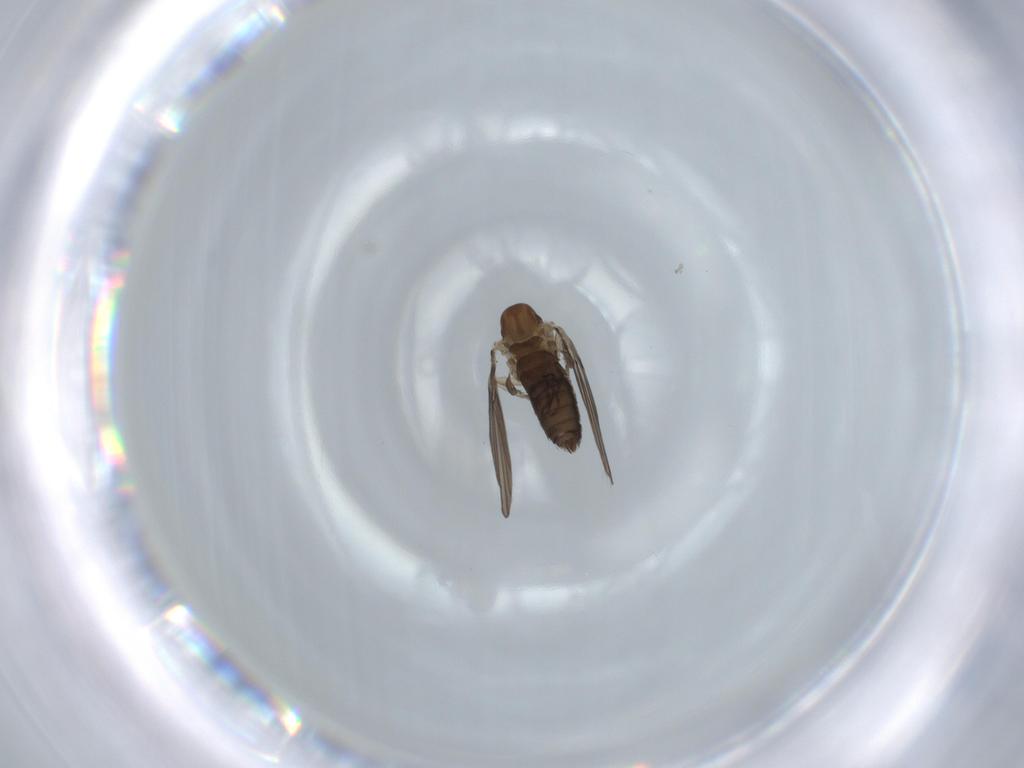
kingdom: Animalia
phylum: Arthropoda
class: Insecta
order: Diptera
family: Psychodidae
